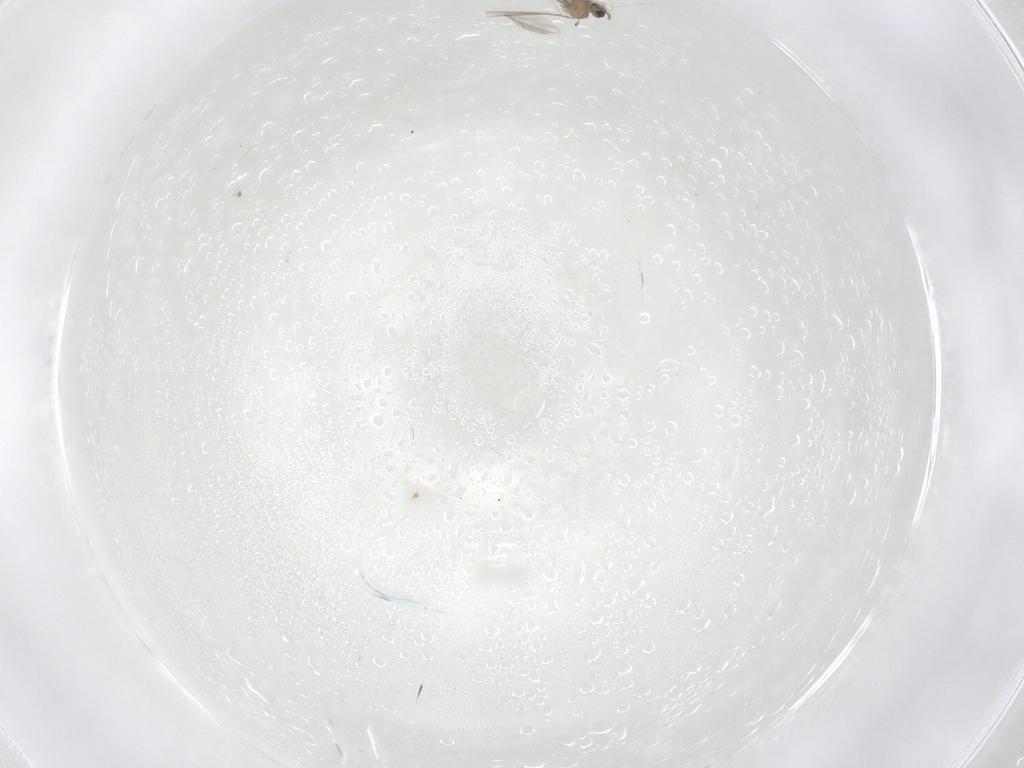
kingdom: Animalia
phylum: Arthropoda
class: Insecta
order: Diptera
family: Cecidomyiidae
